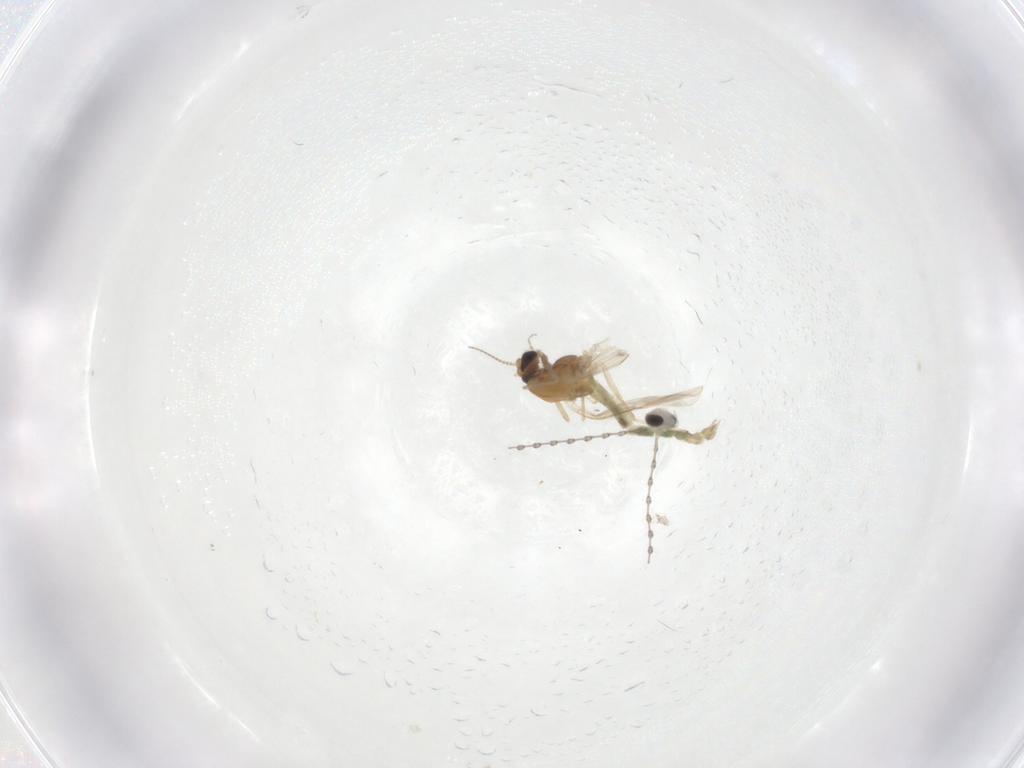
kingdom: Animalia
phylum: Arthropoda
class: Insecta
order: Diptera
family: Chironomidae
